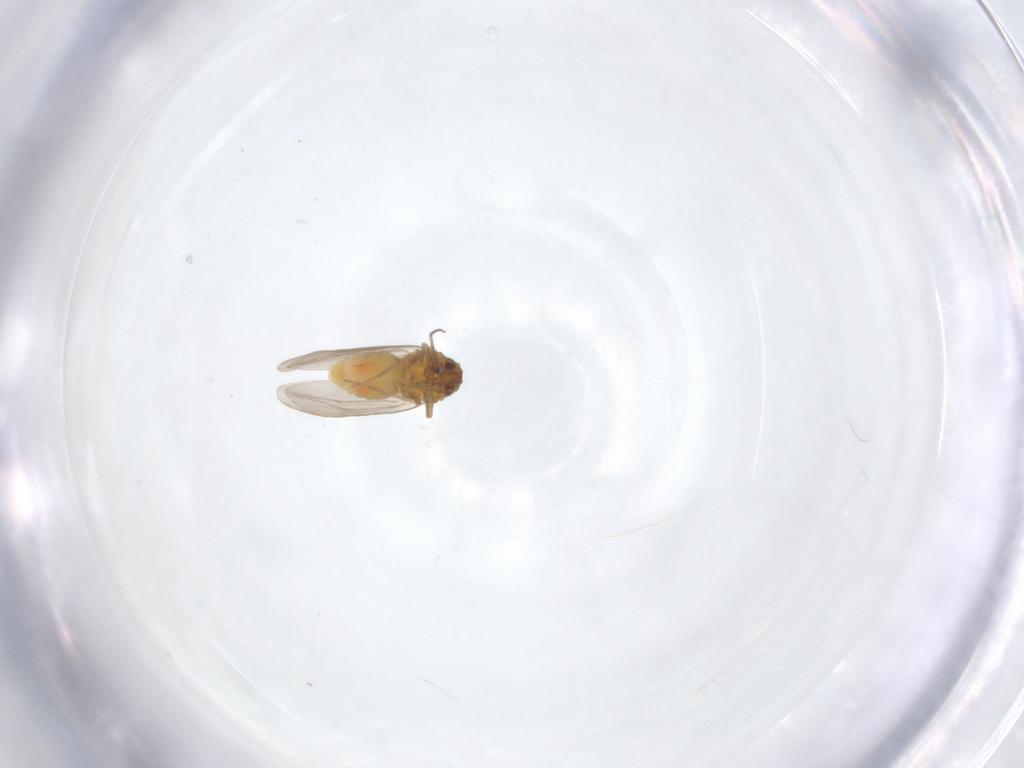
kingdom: Animalia
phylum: Arthropoda
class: Insecta
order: Hemiptera
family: Aleyrodidae
